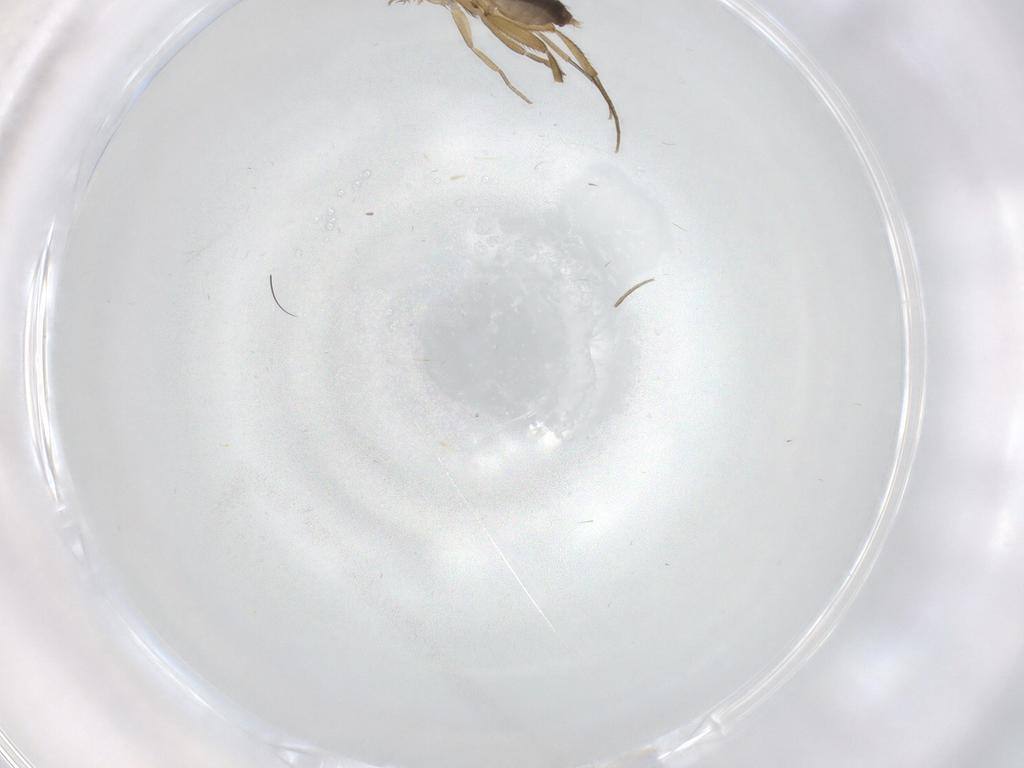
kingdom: Animalia
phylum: Arthropoda
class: Insecta
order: Diptera
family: Phoridae
